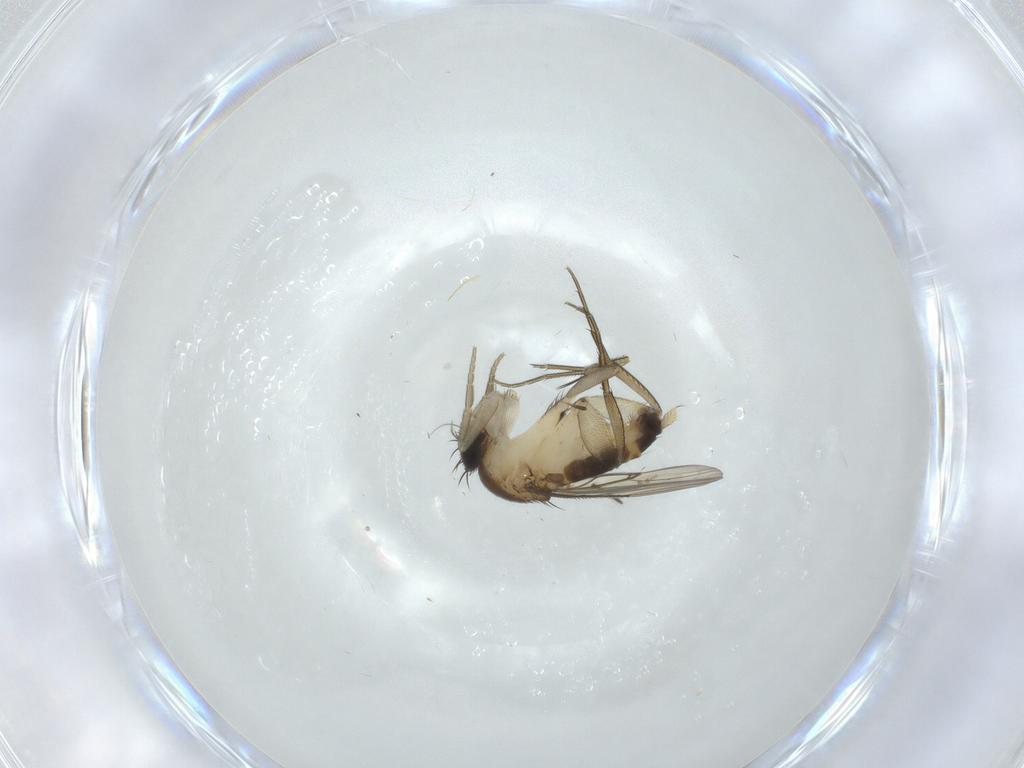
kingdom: Animalia
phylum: Arthropoda
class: Insecta
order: Diptera
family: Phoridae
